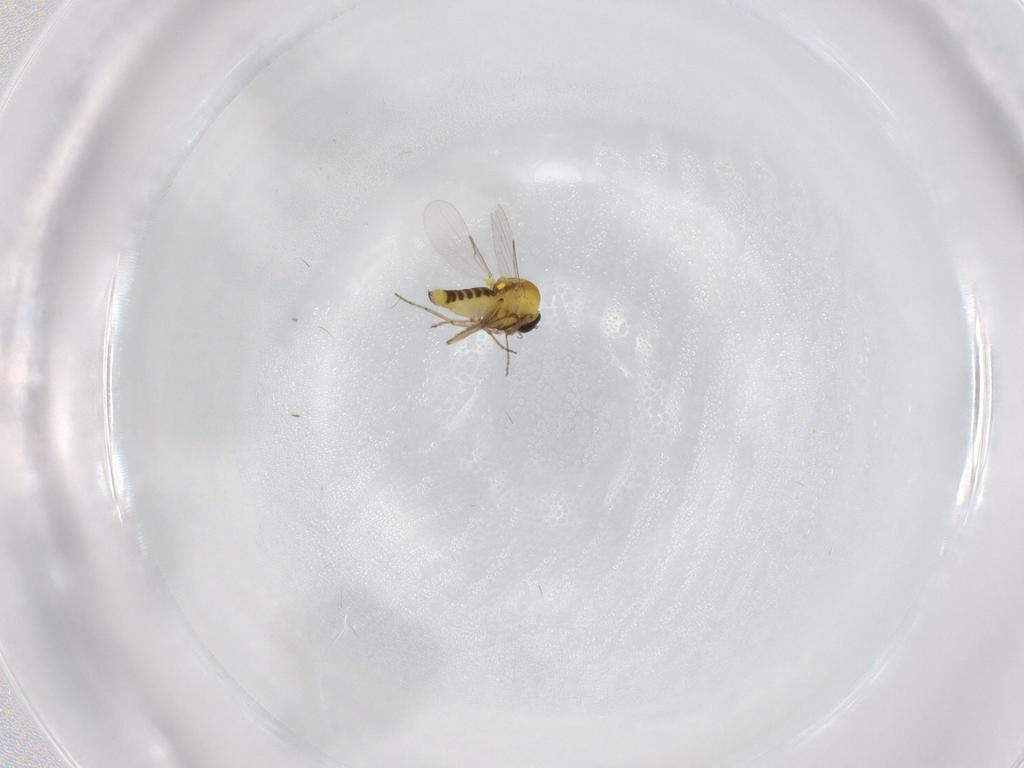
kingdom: Animalia
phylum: Arthropoda
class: Insecta
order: Diptera
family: Ceratopogonidae
